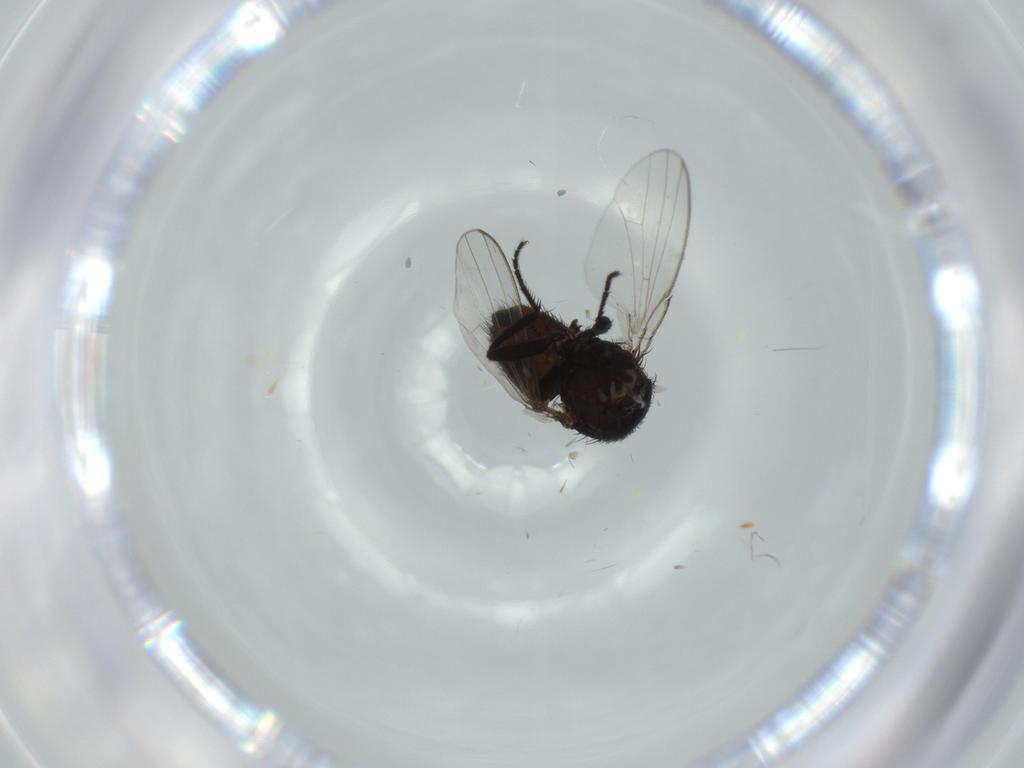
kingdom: Animalia
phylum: Arthropoda
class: Insecta
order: Diptera
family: Milichiidae
